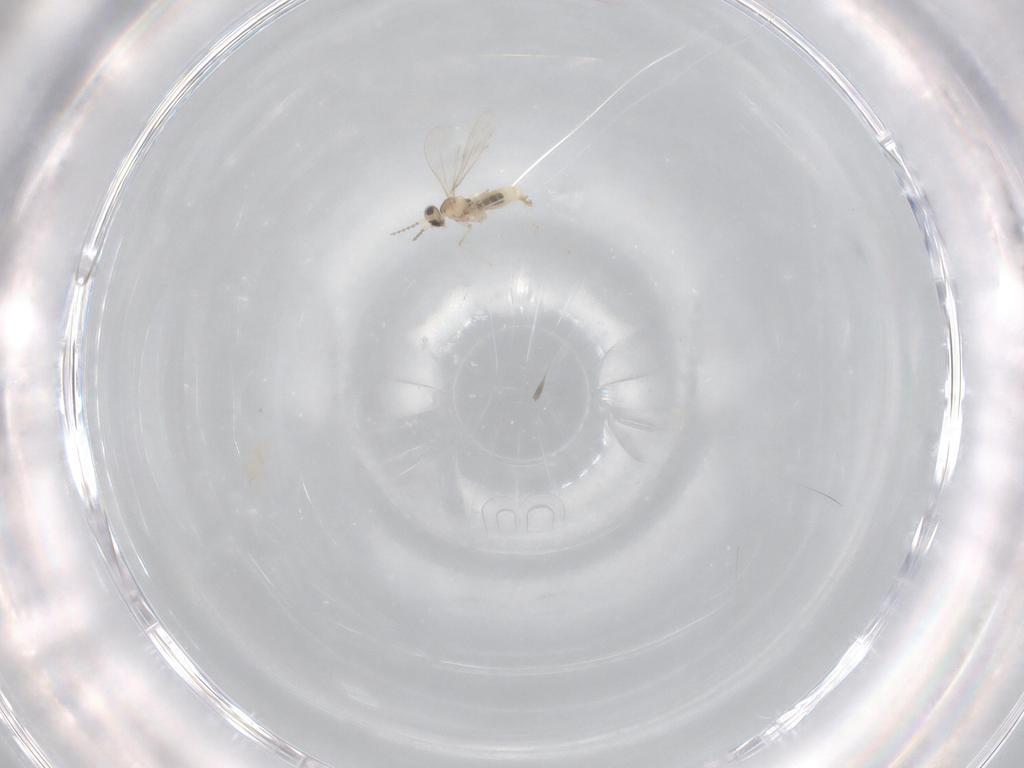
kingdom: Animalia
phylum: Arthropoda
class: Insecta
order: Diptera
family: Cecidomyiidae
